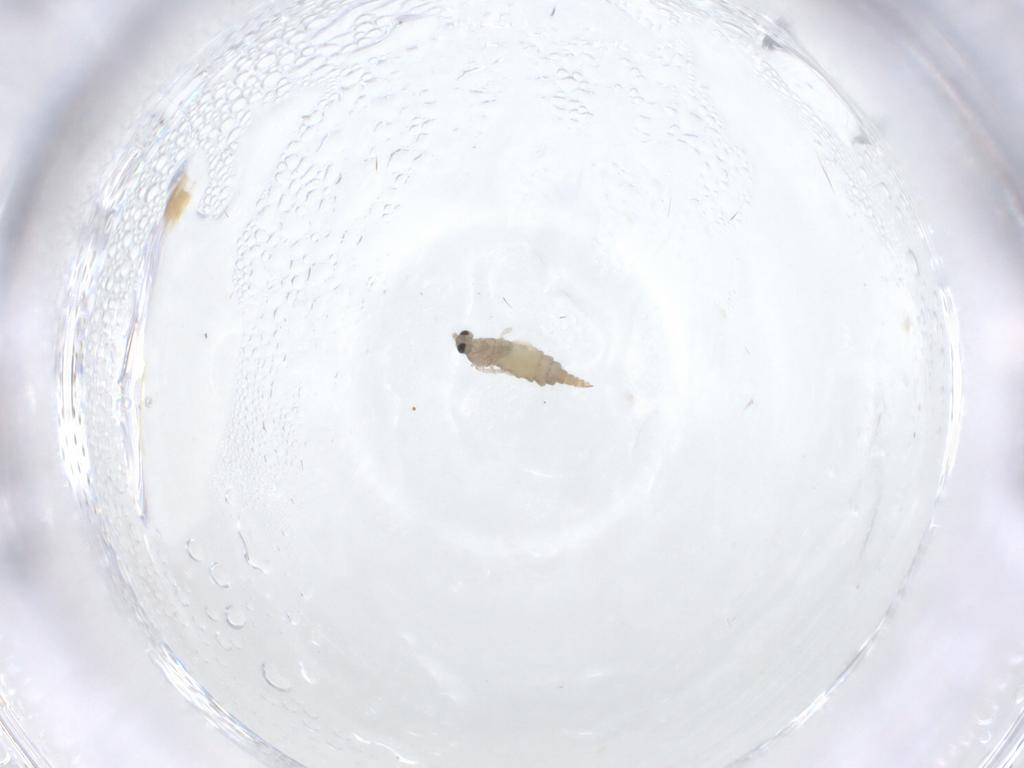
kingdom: Animalia
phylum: Arthropoda
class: Insecta
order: Diptera
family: Cecidomyiidae
